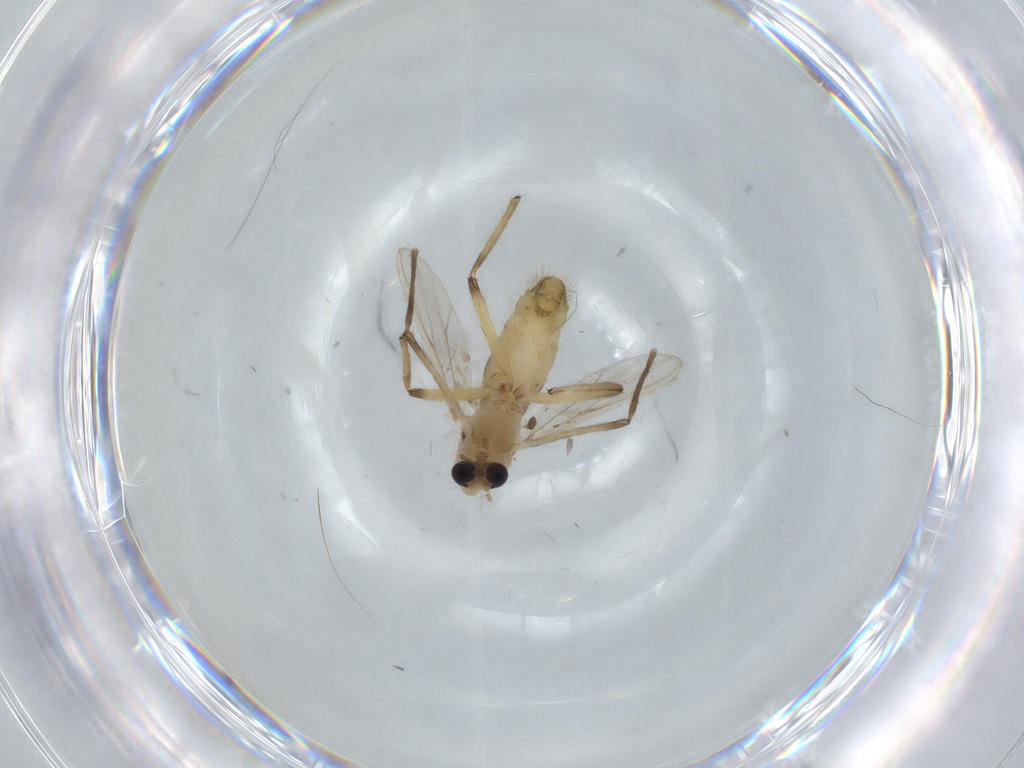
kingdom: Animalia
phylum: Arthropoda
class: Insecta
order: Diptera
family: Chironomidae
